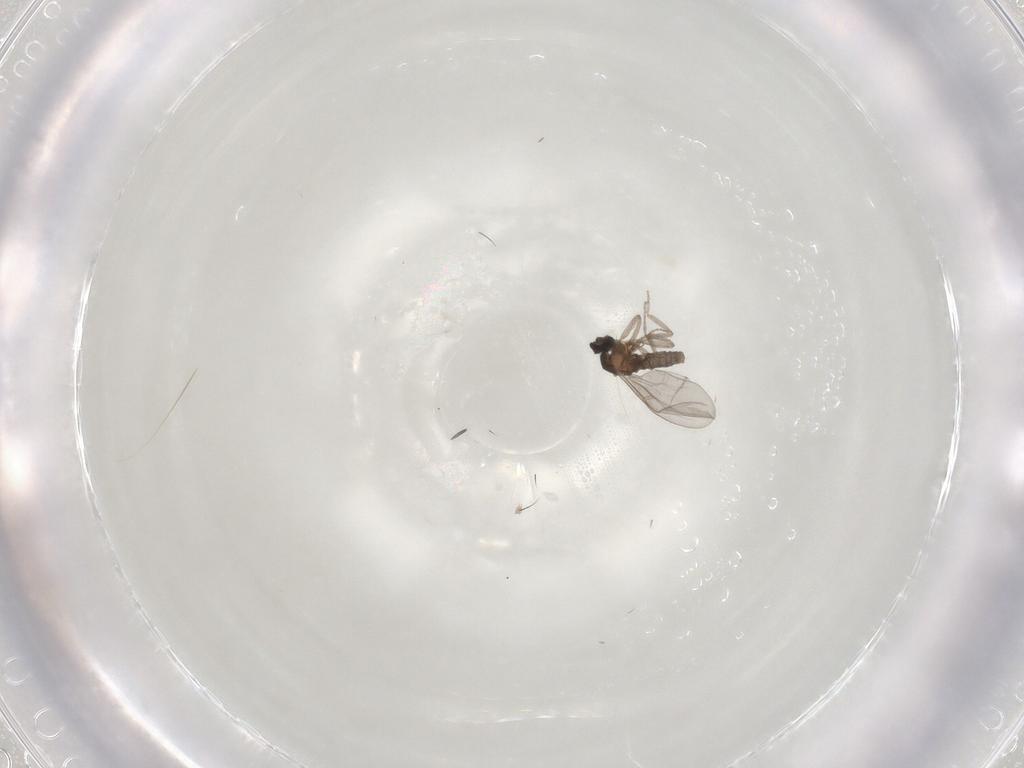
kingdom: Animalia
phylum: Arthropoda
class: Insecta
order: Diptera
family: Cecidomyiidae
